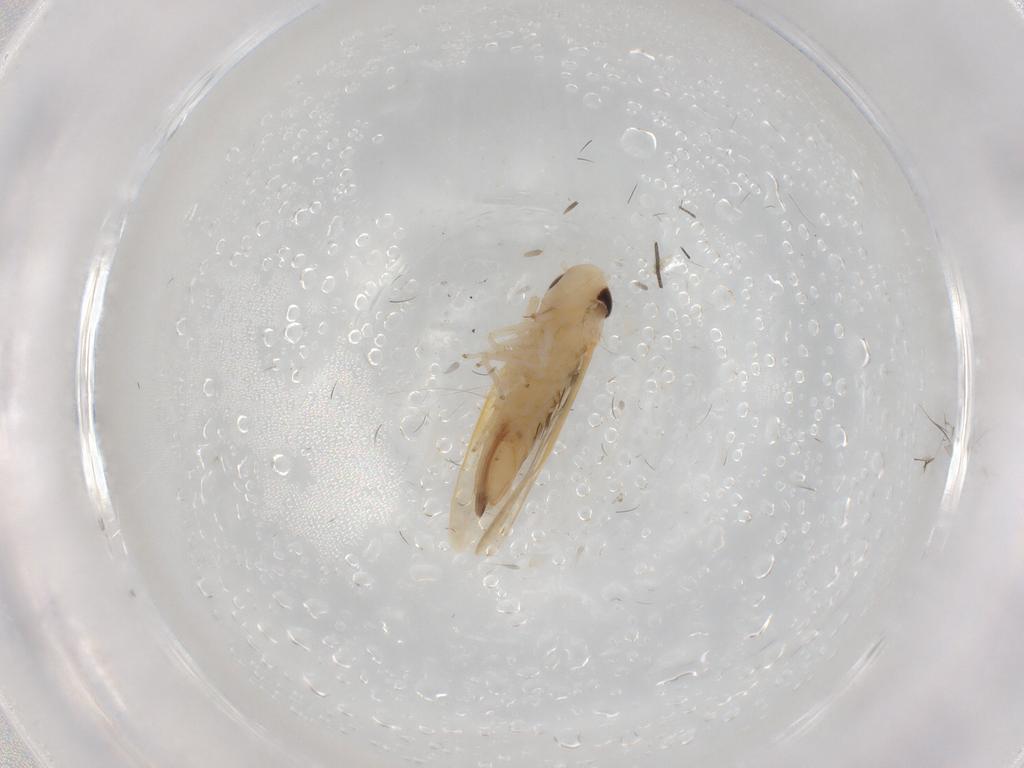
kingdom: Animalia
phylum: Arthropoda
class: Insecta
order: Hemiptera
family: Cicadellidae
